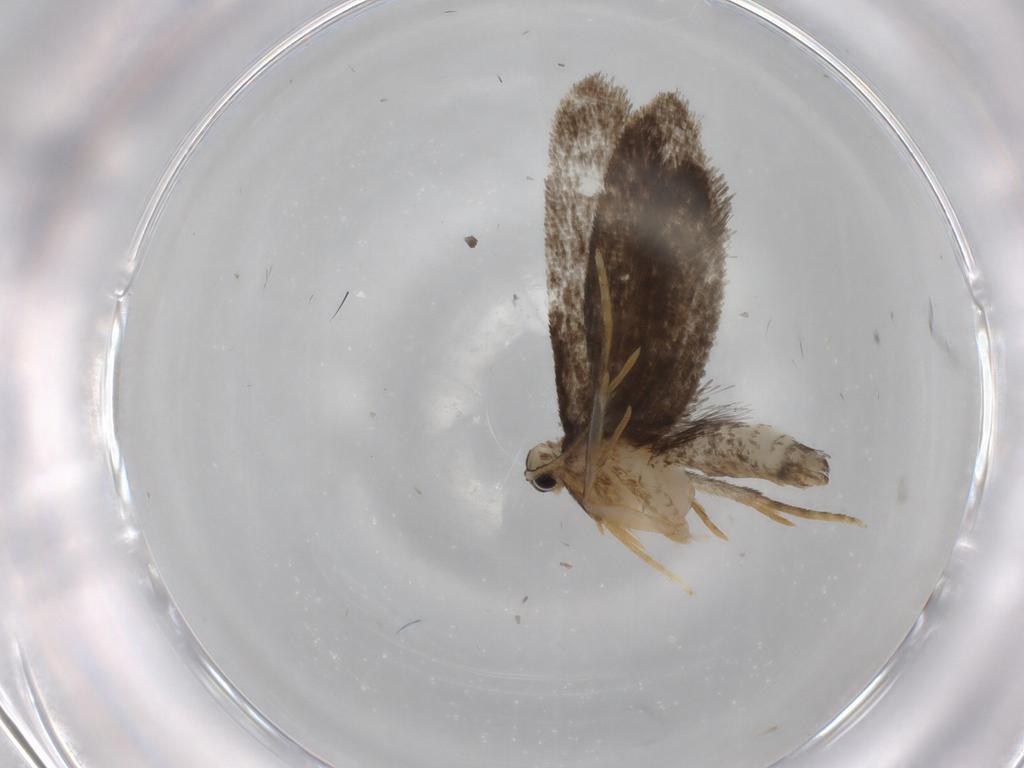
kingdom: Animalia
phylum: Arthropoda
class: Insecta
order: Lepidoptera
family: Psychidae
